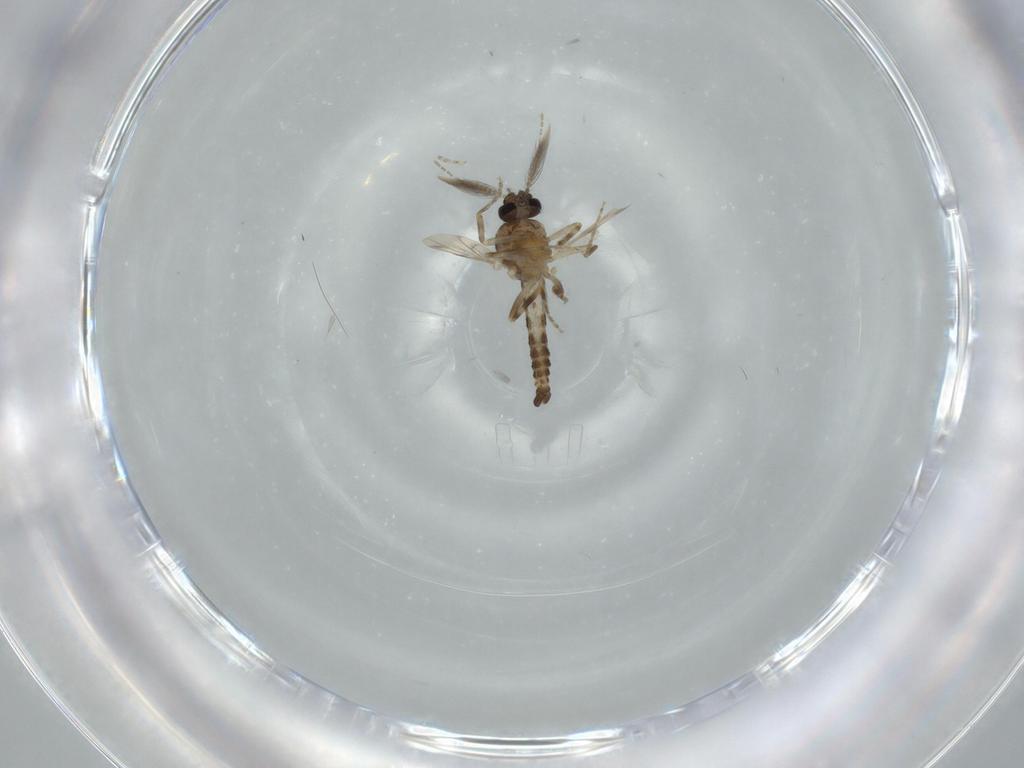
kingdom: Animalia
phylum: Arthropoda
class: Insecta
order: Diptera
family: Ceratopogonidae
